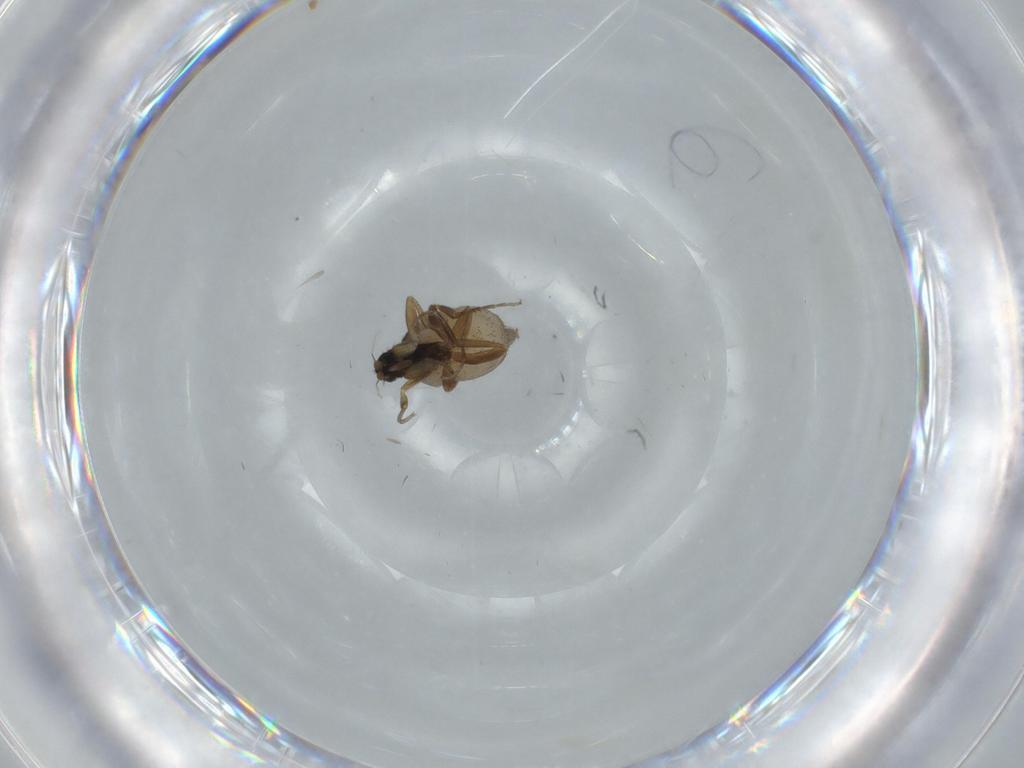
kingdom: Animalia
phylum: Arthropoda
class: Insecta
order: Diptera
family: Phoridae
